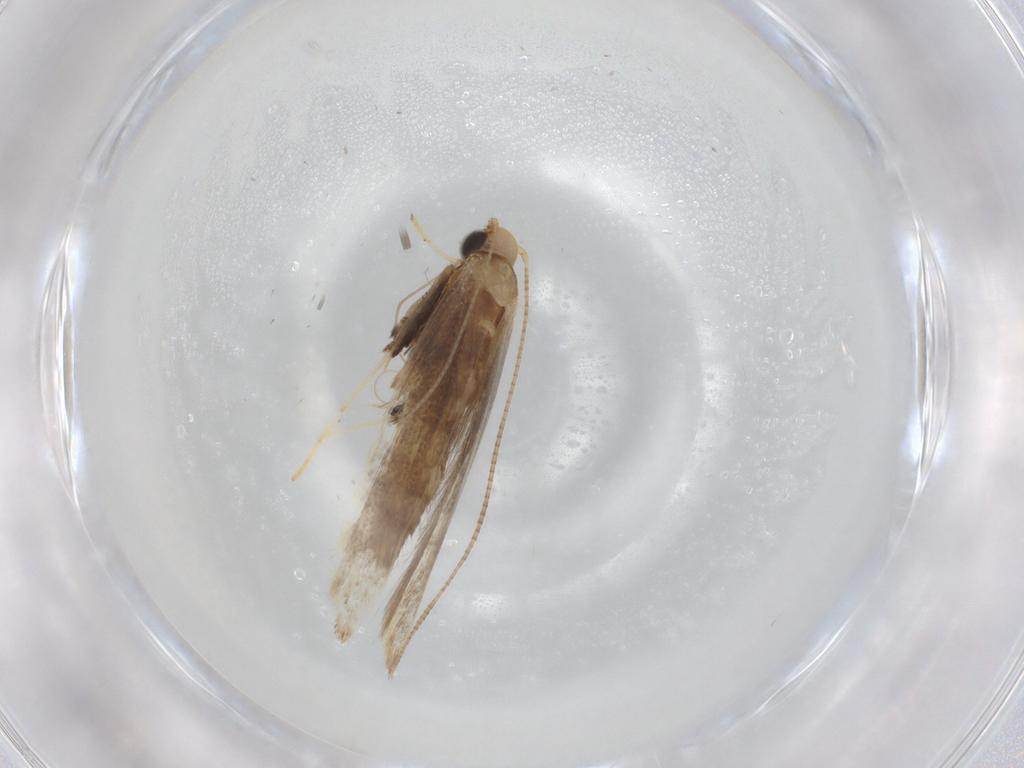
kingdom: Animalia
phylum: Arthropoda
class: Insecta
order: Lepidoptera
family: Gracillariidae
